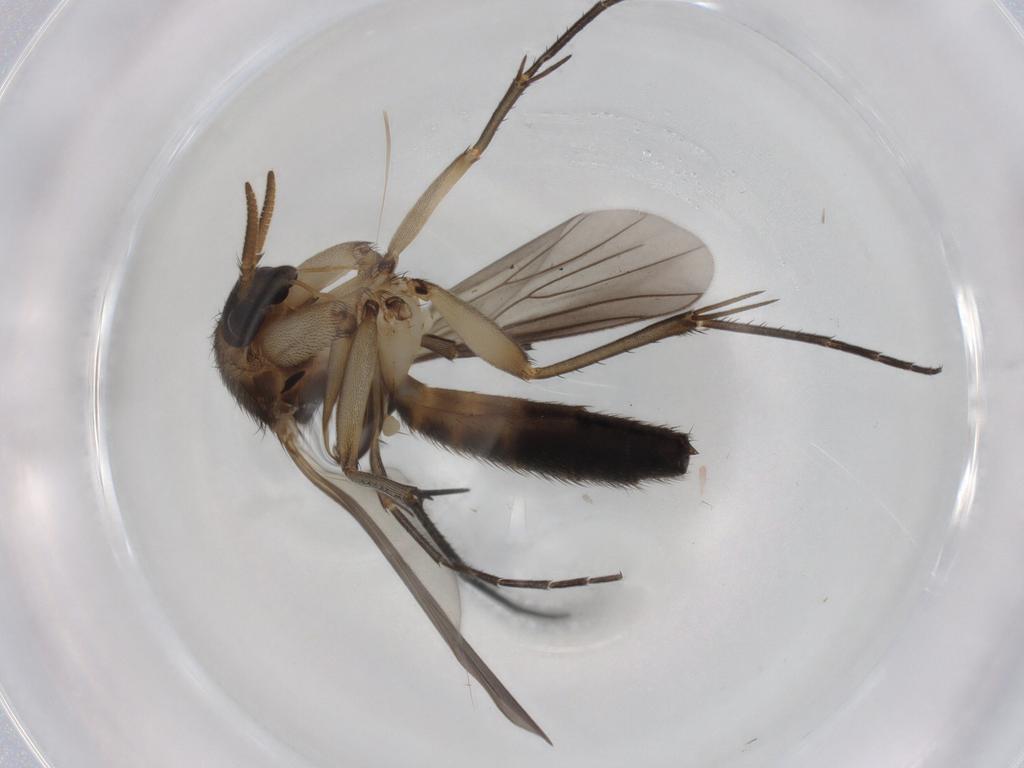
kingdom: Animalia
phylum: Arthropoda
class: Insecta
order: Diptera
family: Mycetophilidae
